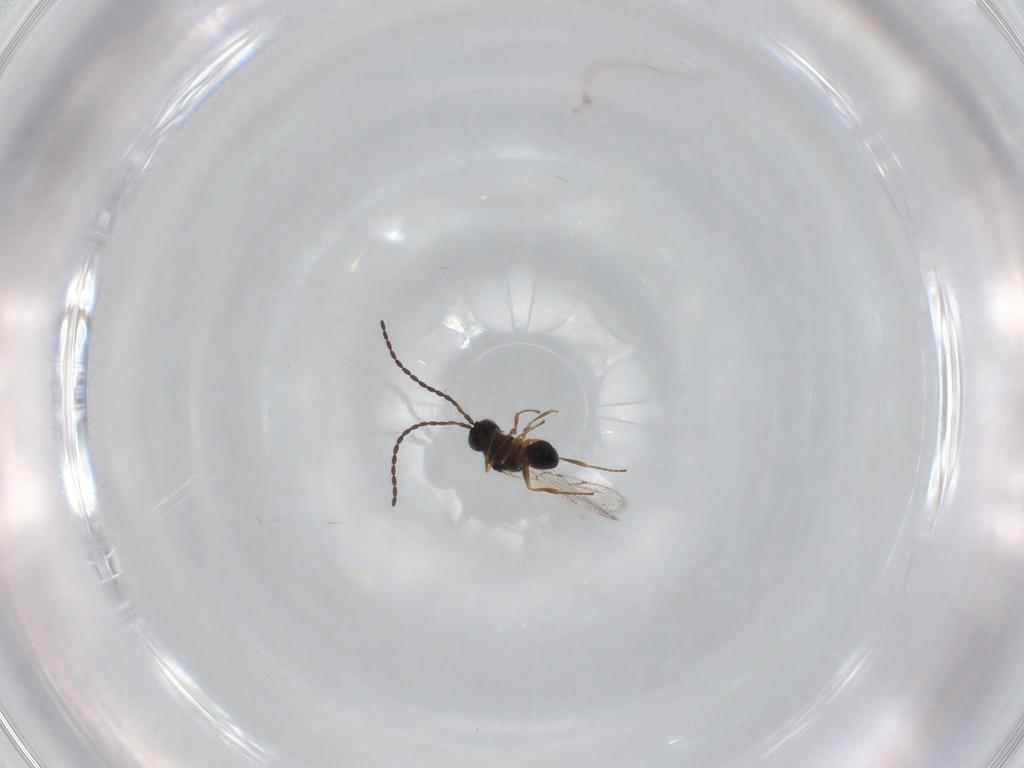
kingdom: Animalia
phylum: Arthropoda
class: Insecta
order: Hymenoptera
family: Figitidae
